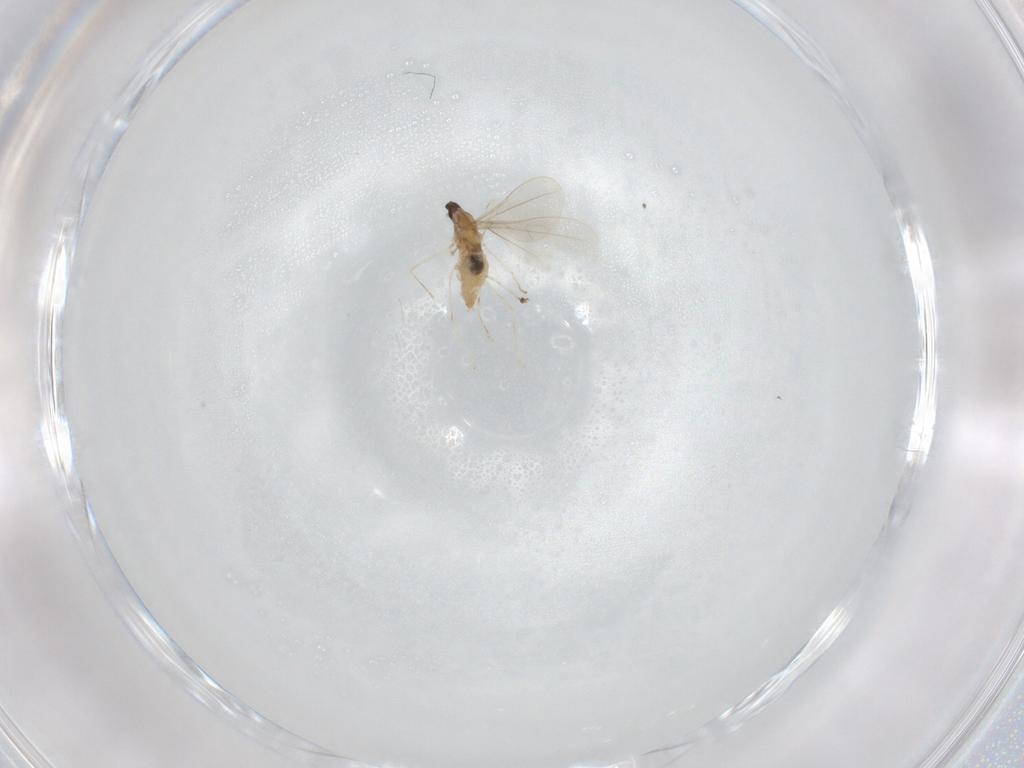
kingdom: Animalia
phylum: Arthropoda
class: Insecta
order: Diptera
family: Cecidomyiidae
